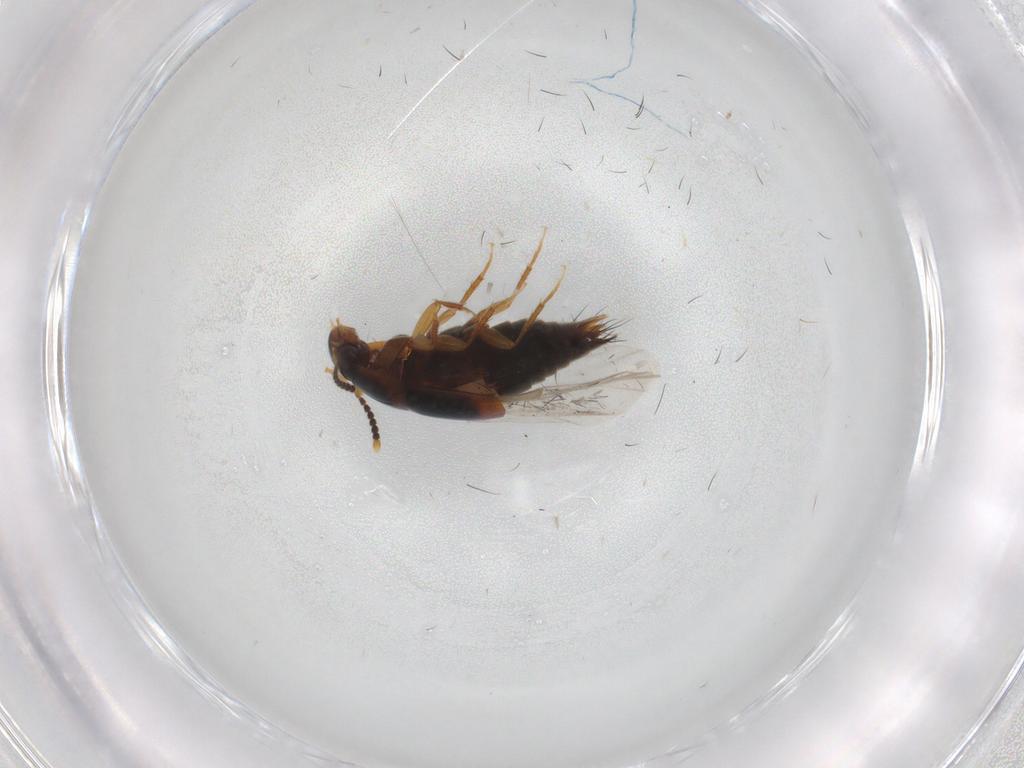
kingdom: Animalia
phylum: Arthropoda
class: Insecta
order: Coleoptera
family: Staphylinidae
